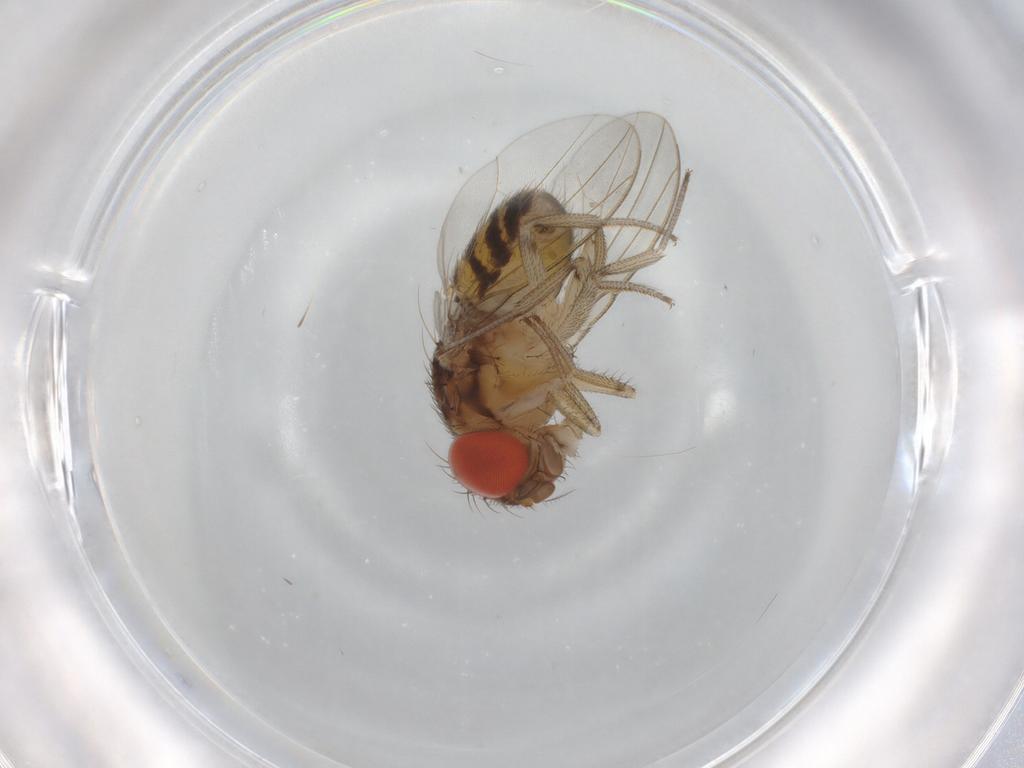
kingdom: Animalia
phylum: Arthropoda
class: Insecta
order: Diptera
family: Drosophilidae
